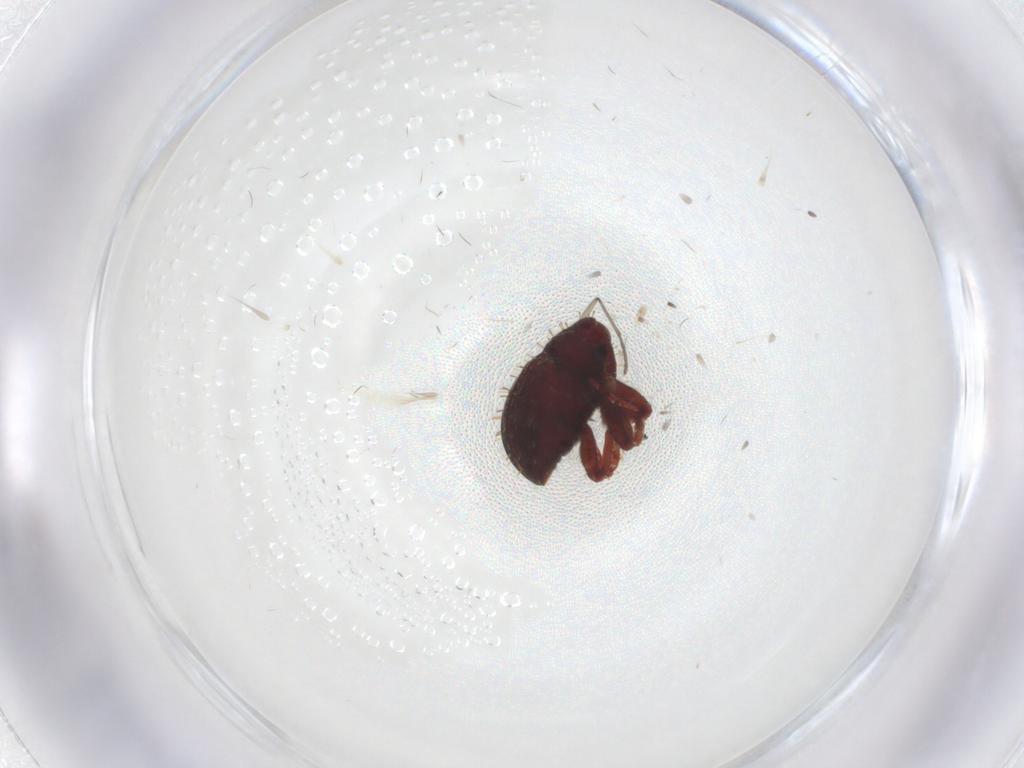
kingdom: Animalia
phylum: Arthropoda
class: Insecta
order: Coleoptera
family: Curculionidae
